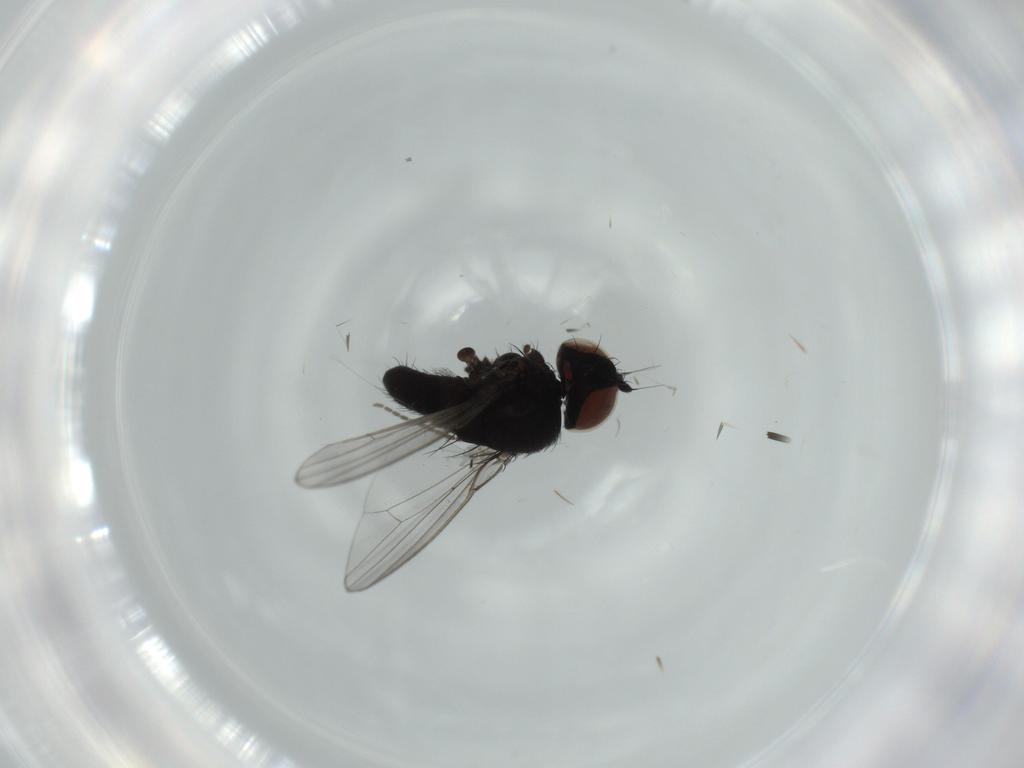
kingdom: Animalia
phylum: Arthropoda
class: Insecta
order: Diptera
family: Milichiidae
